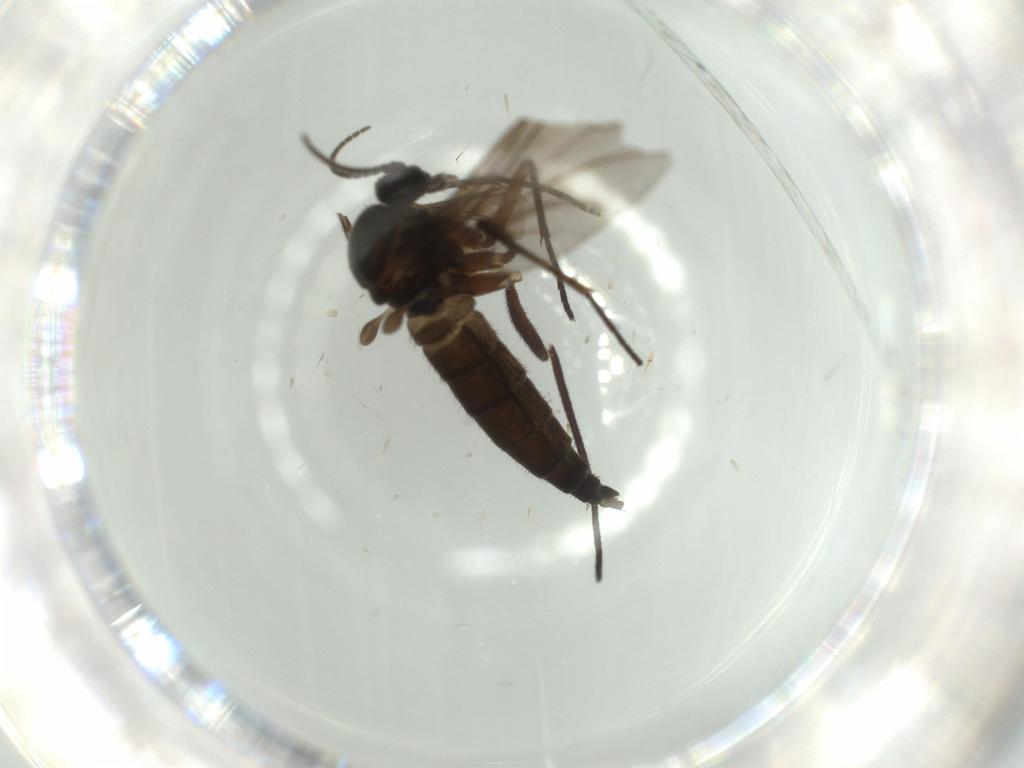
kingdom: Animalia
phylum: Arthropoda
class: Insecta
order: Diptera
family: Sciaridae
